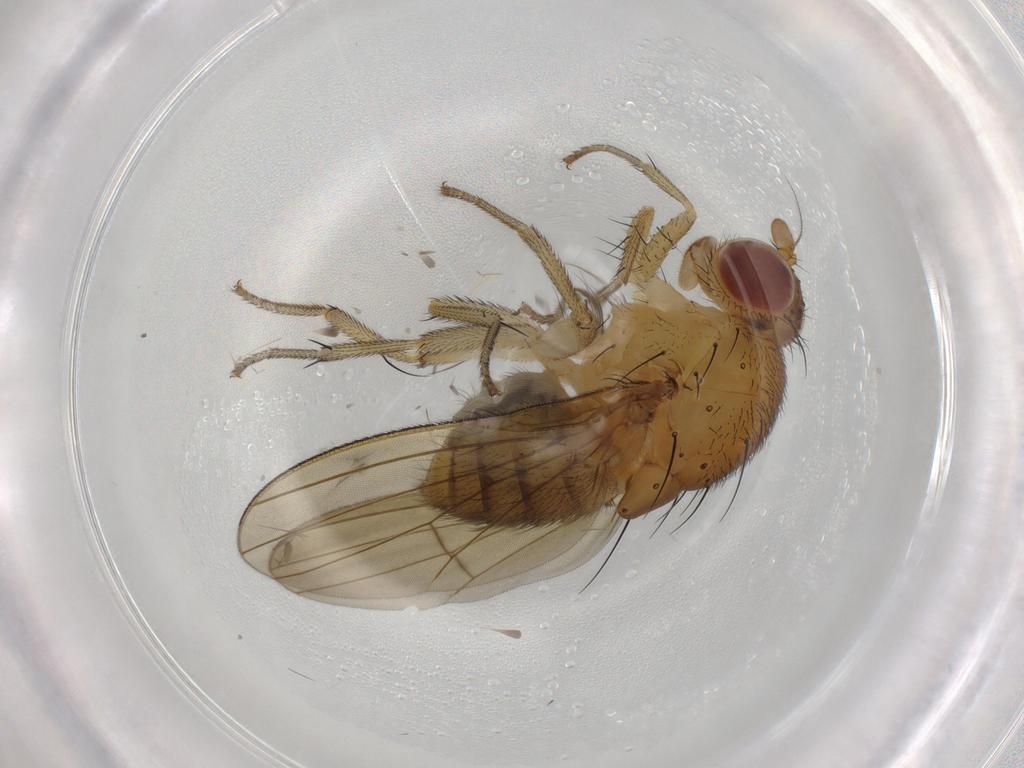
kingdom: Animalia
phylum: Arthropoda
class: Insecta
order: Diptera
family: Psychodidae
